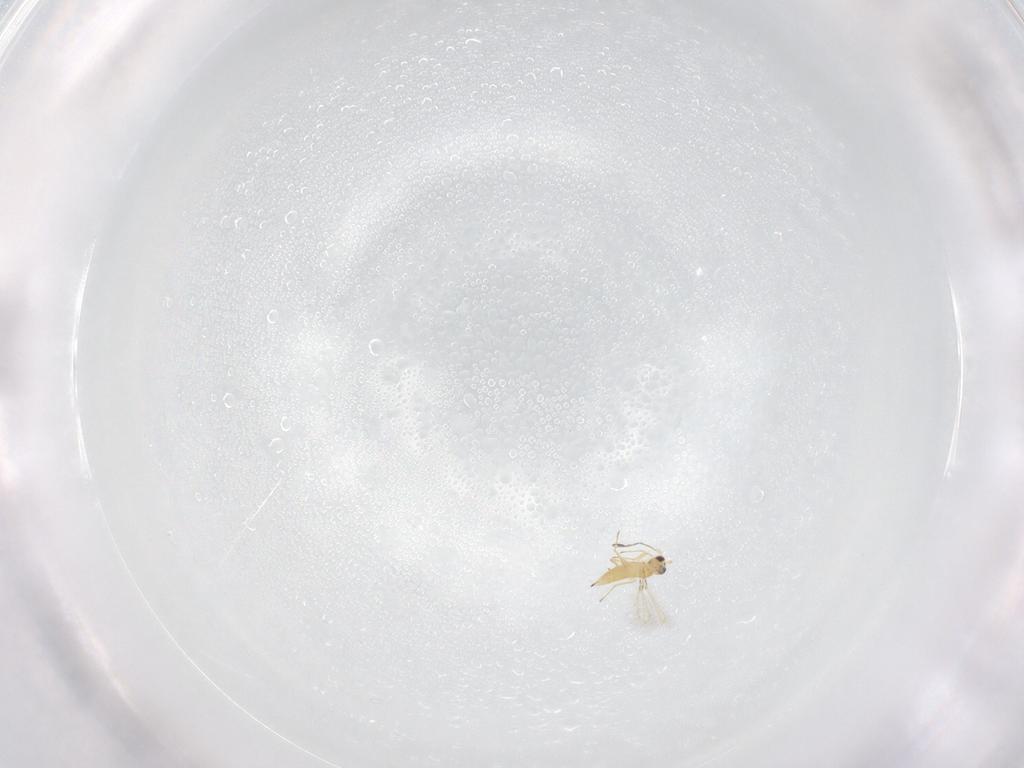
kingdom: Animalia
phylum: Arthropoda
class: Insecta
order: Hymenoptera
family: Mymaridae
